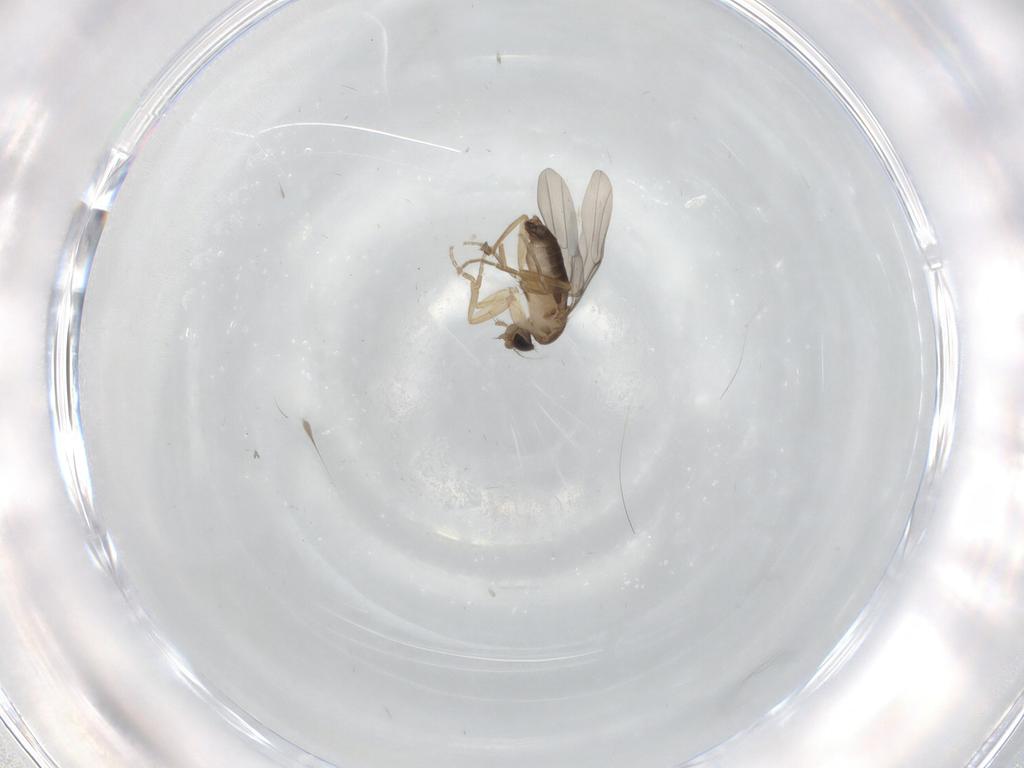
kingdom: Animalia
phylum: Arthropoda
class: Insecta
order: Diptera
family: Phoridae
